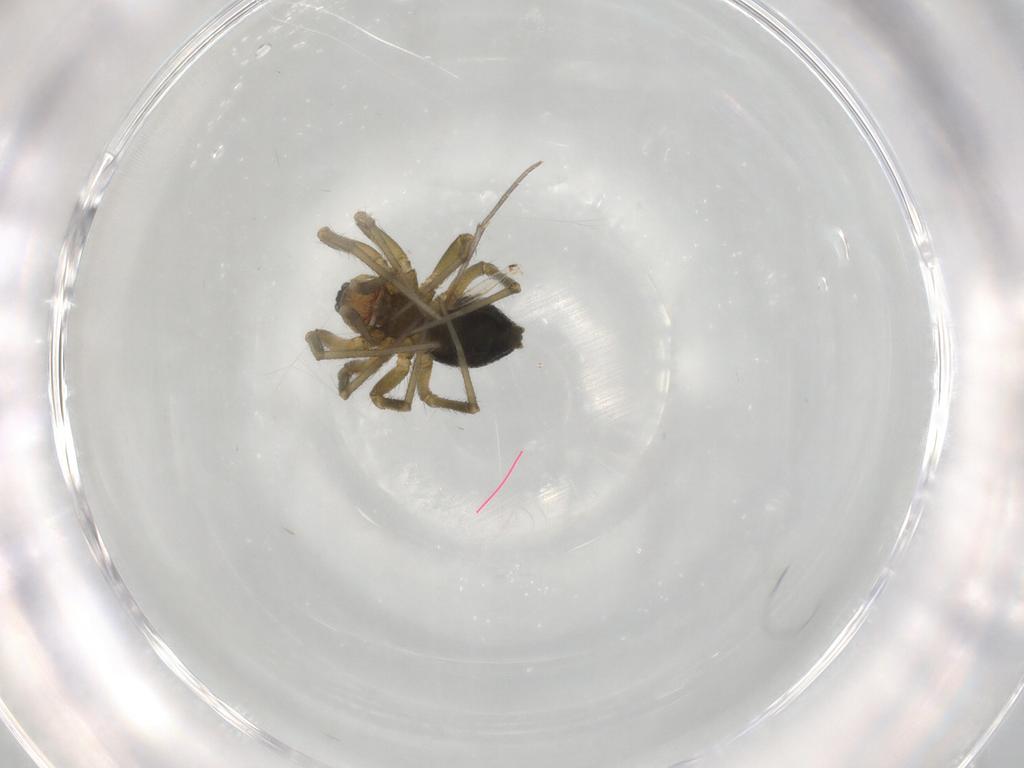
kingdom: Animalia
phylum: Arthropoda
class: Arachnida
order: Araneae
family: Linyphiidae
